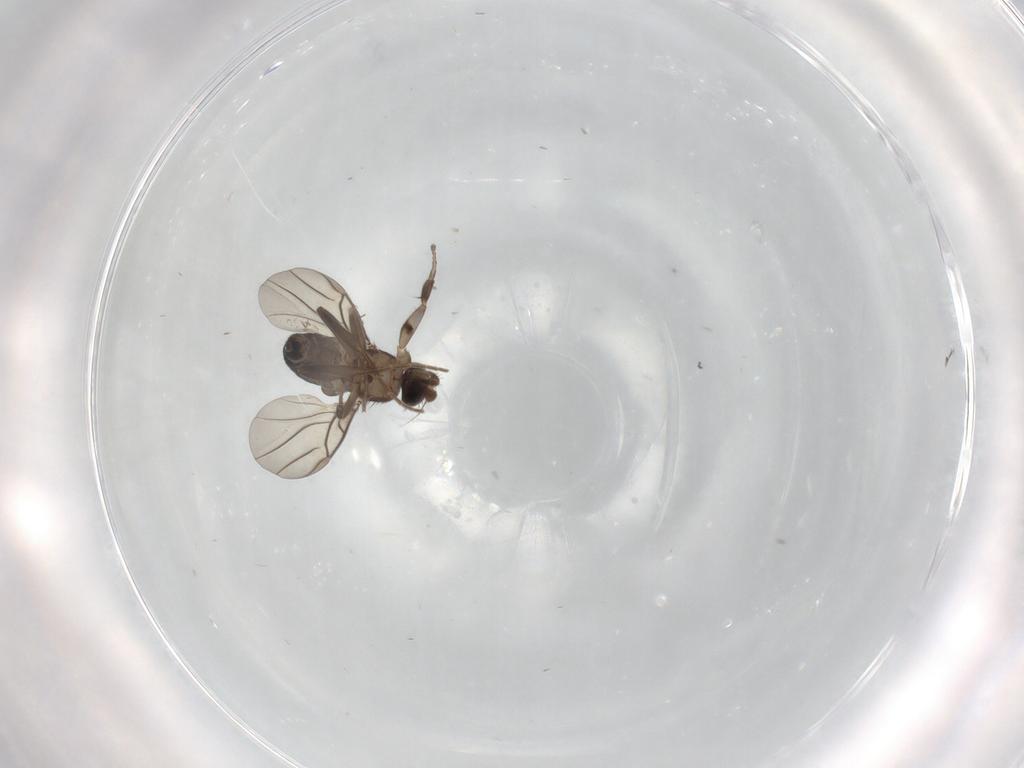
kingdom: Animalia
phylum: Arthropoda
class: Insecta
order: Diptera
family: Phoridae
